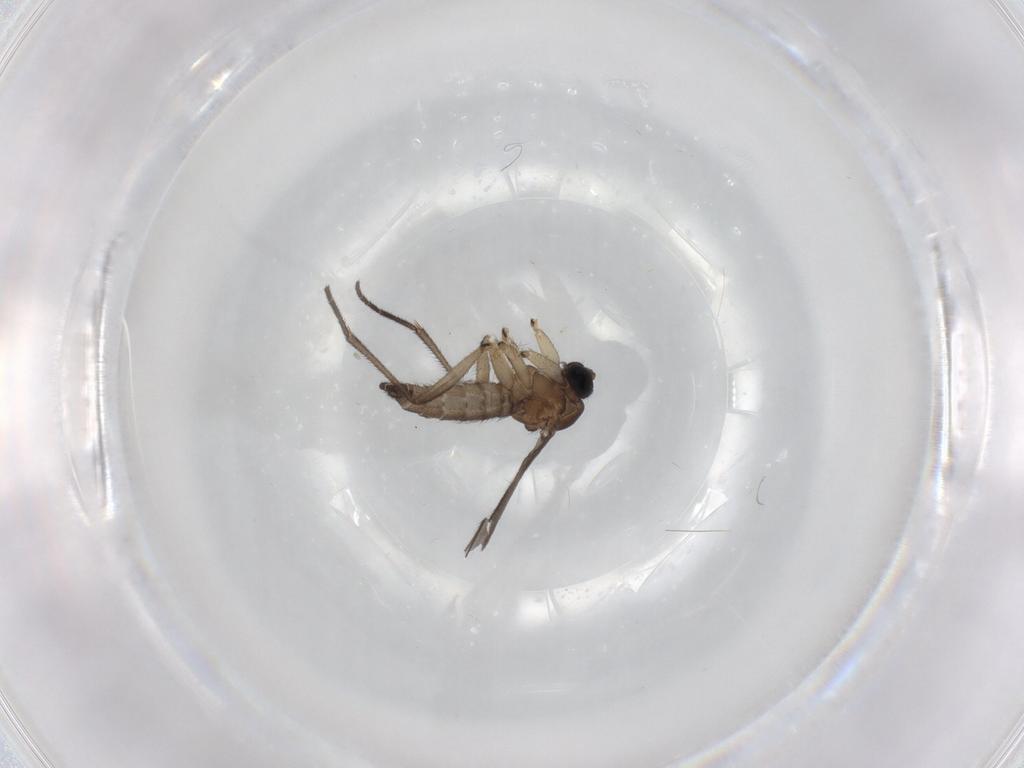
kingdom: Animalia
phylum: Arthropoda
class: Insecta
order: Diptera
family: Sciaridae
